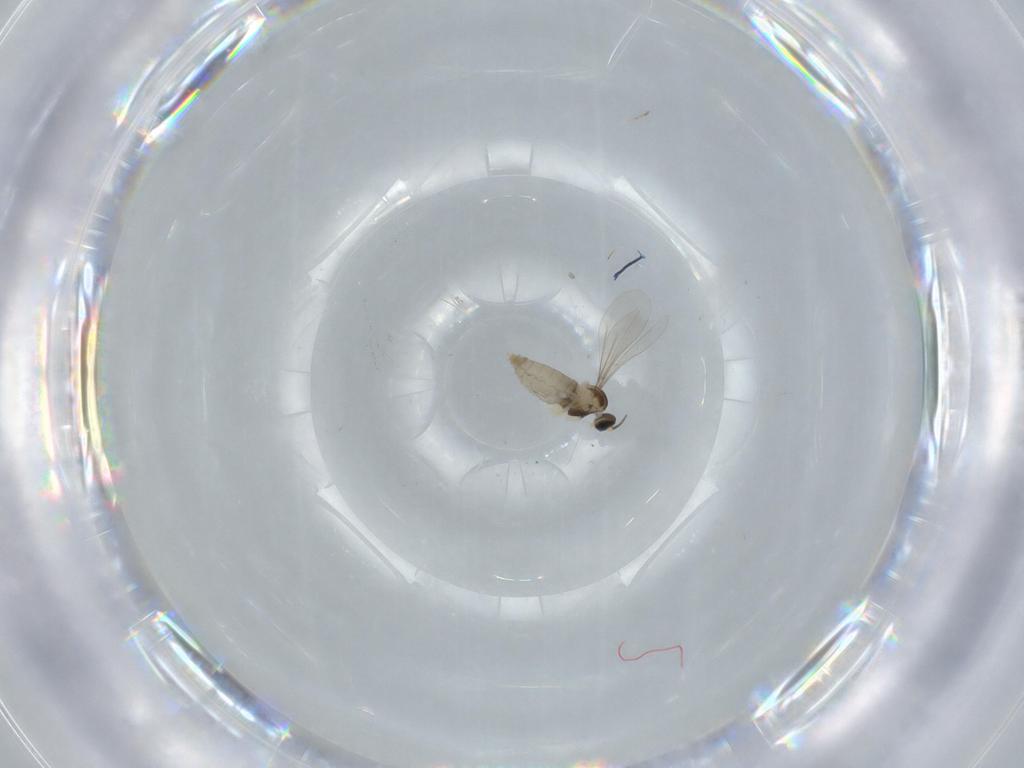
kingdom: Animalia
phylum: Arthropoda
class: Insecta
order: Diptera
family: Cecidomyiidae
